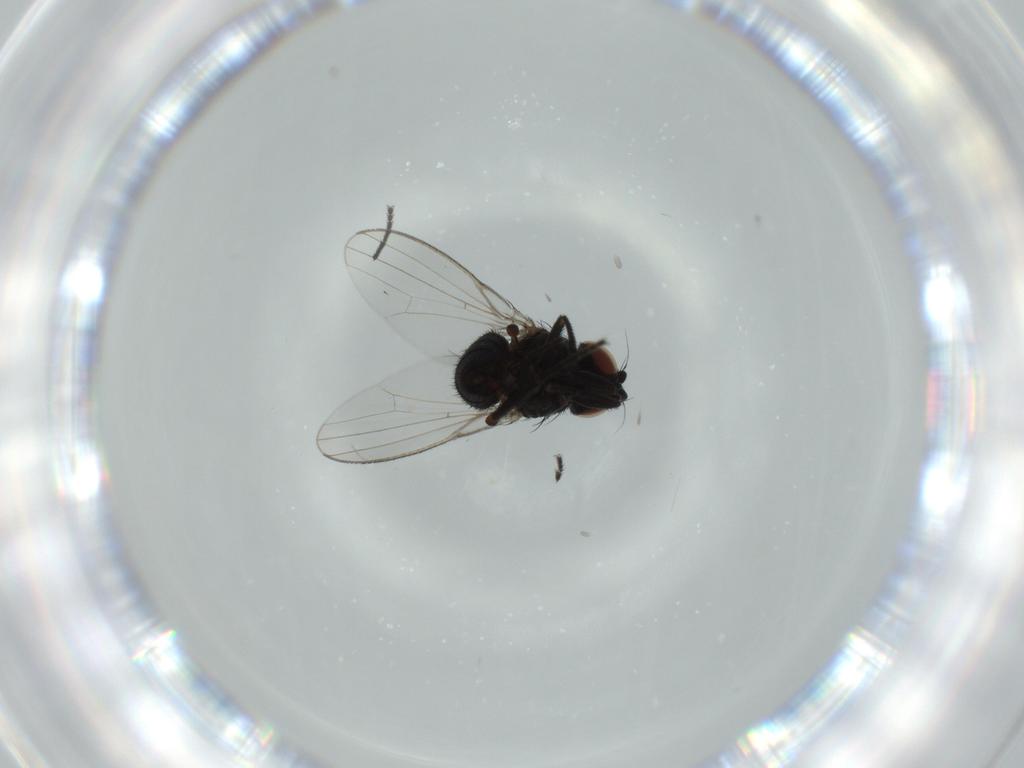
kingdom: Animalia
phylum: Arthropoda
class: Insecta
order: Diptera
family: Milichiidae
